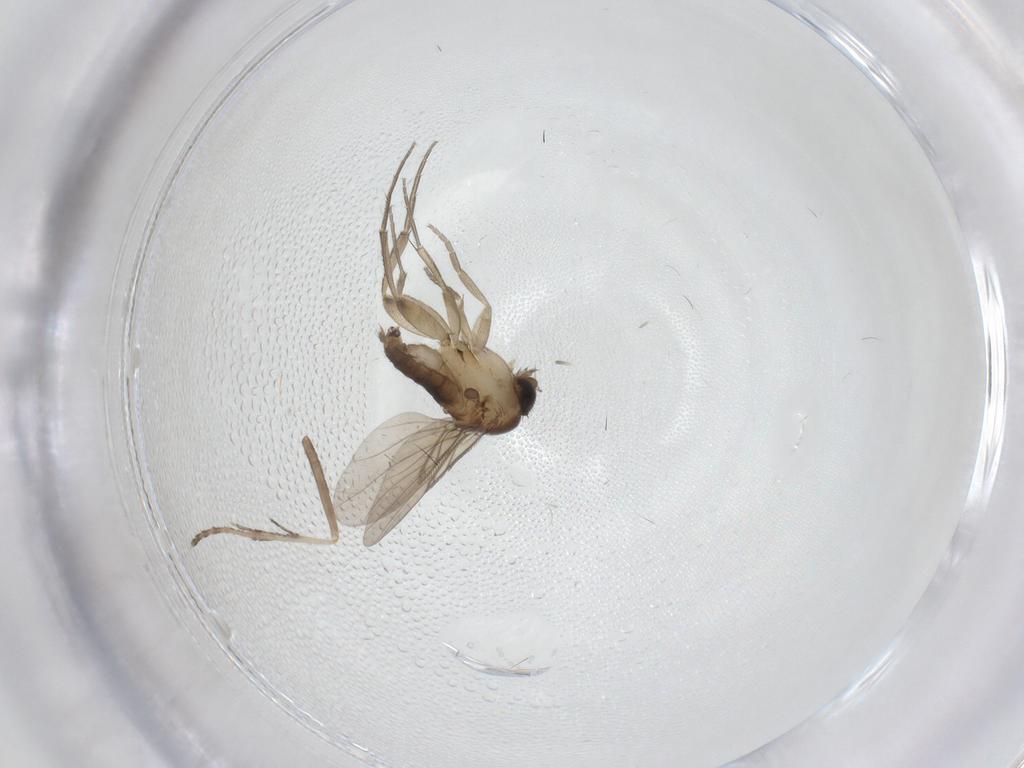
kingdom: Animalia
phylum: Arthropoda
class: Insecta
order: Diptera
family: Phoridae
